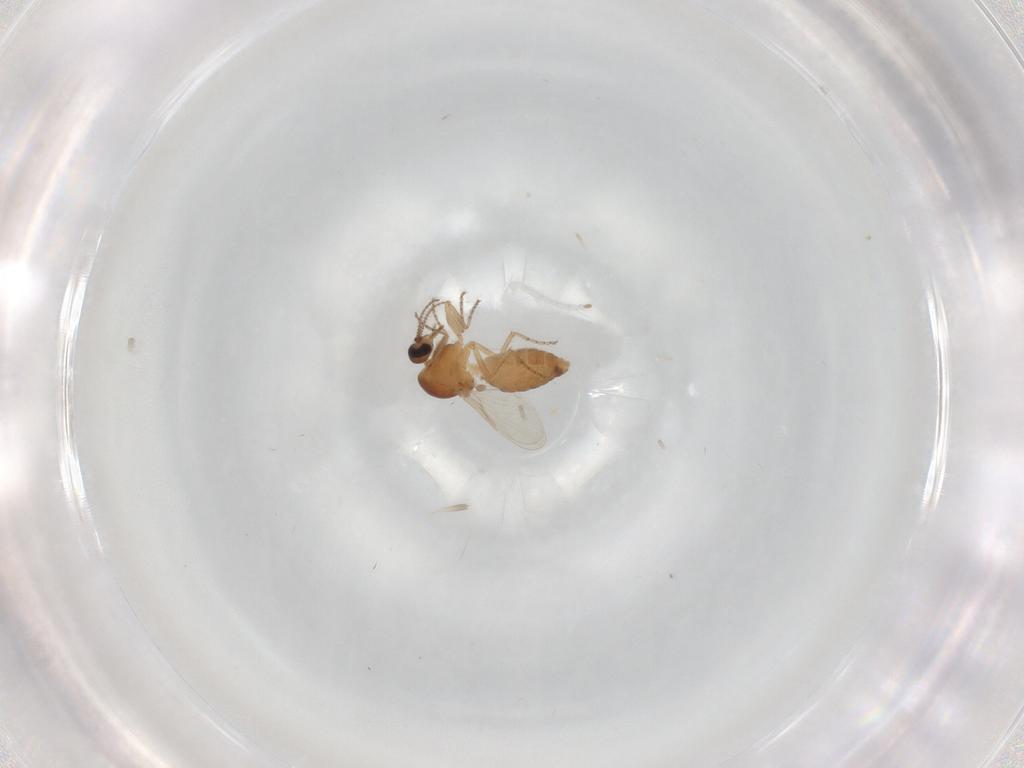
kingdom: Animalia
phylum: Arthropoda
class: Insecta
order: Diptera
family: Ceratopogonidae
